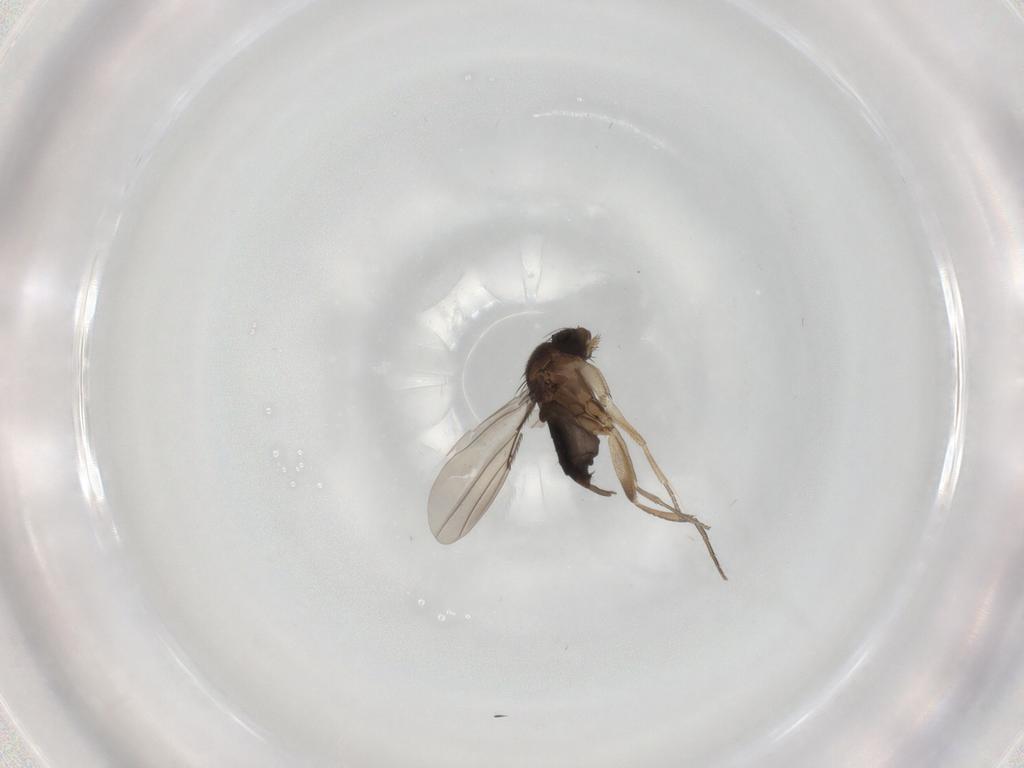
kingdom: Animalia
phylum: Arthropoda
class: Insecta
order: Diptera
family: Phoridae
